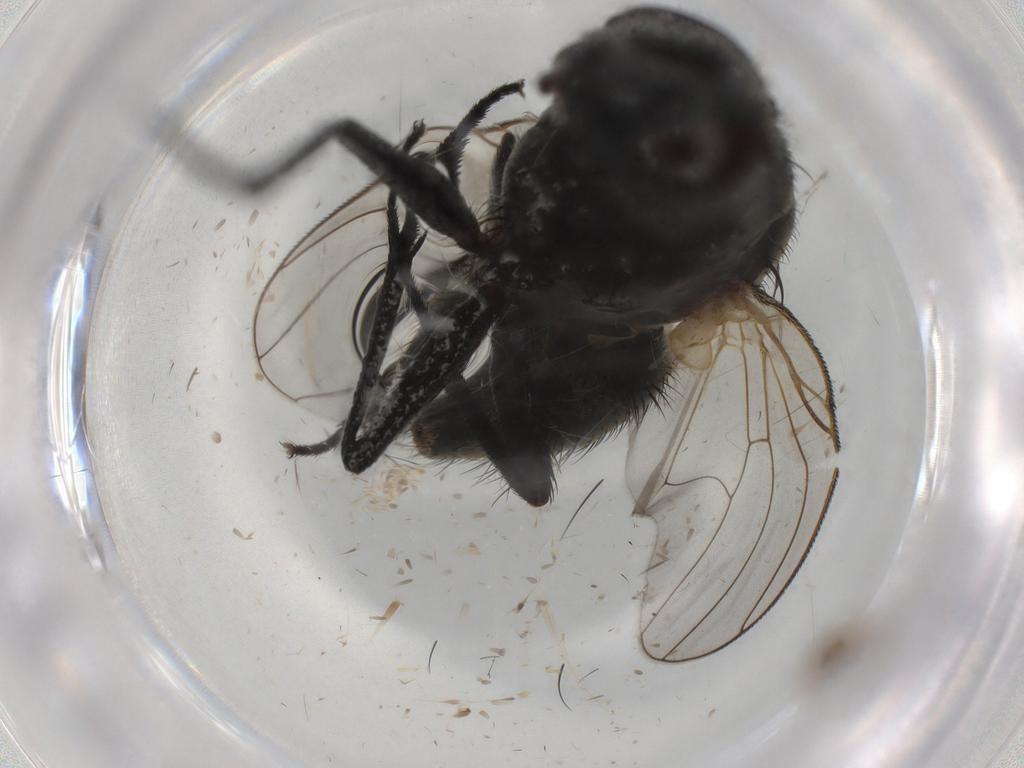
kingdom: Animalia
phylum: Arthropoda
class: Insecta
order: Diptera
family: Muscidae
